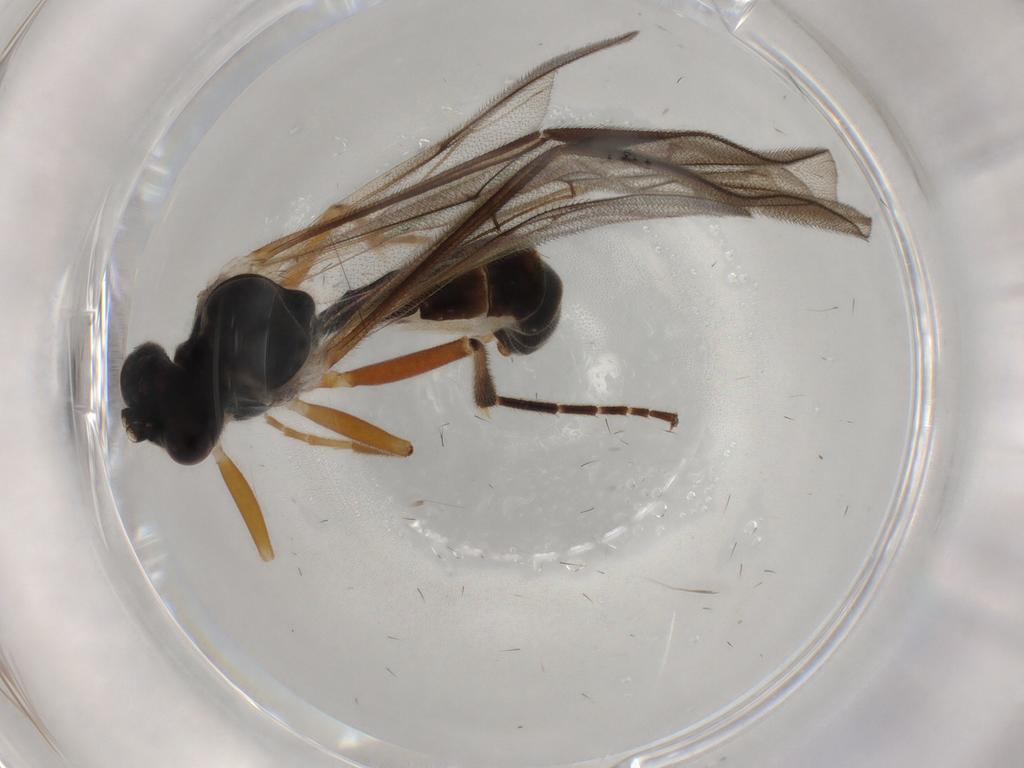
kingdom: Animalia
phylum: Arthropoda
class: Insecta
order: Hymenoptera
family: Ichneumonidae
